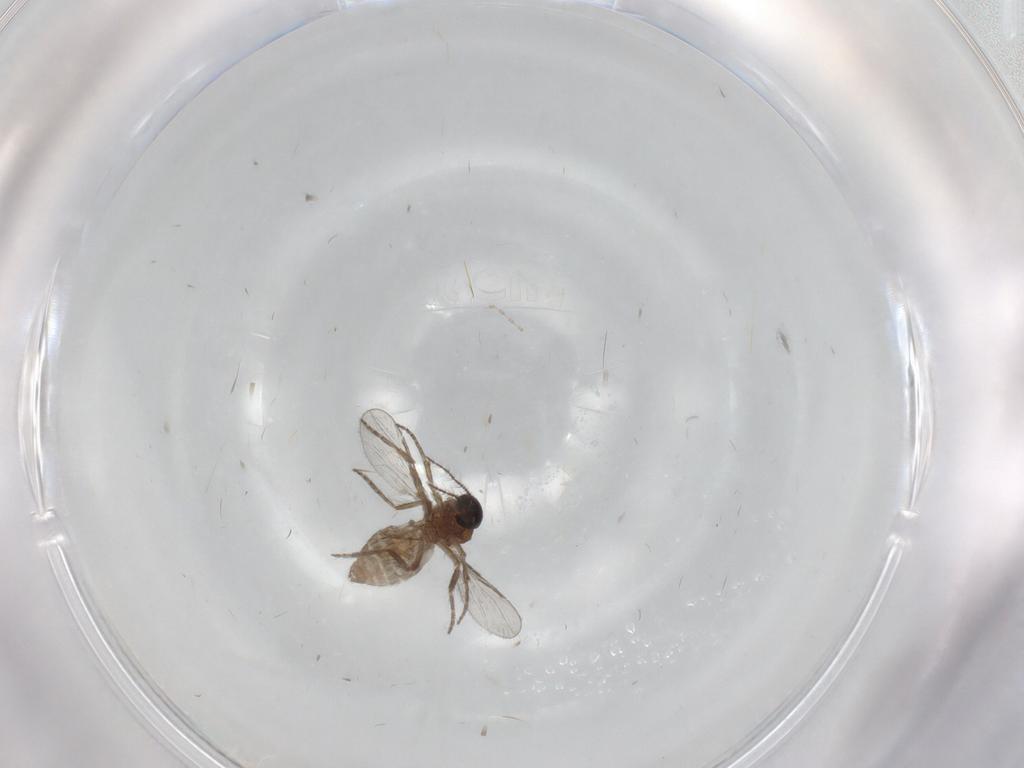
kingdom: Animalia
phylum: Arthropoda
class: Insecta
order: Diptera
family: Cecidomyiidae
